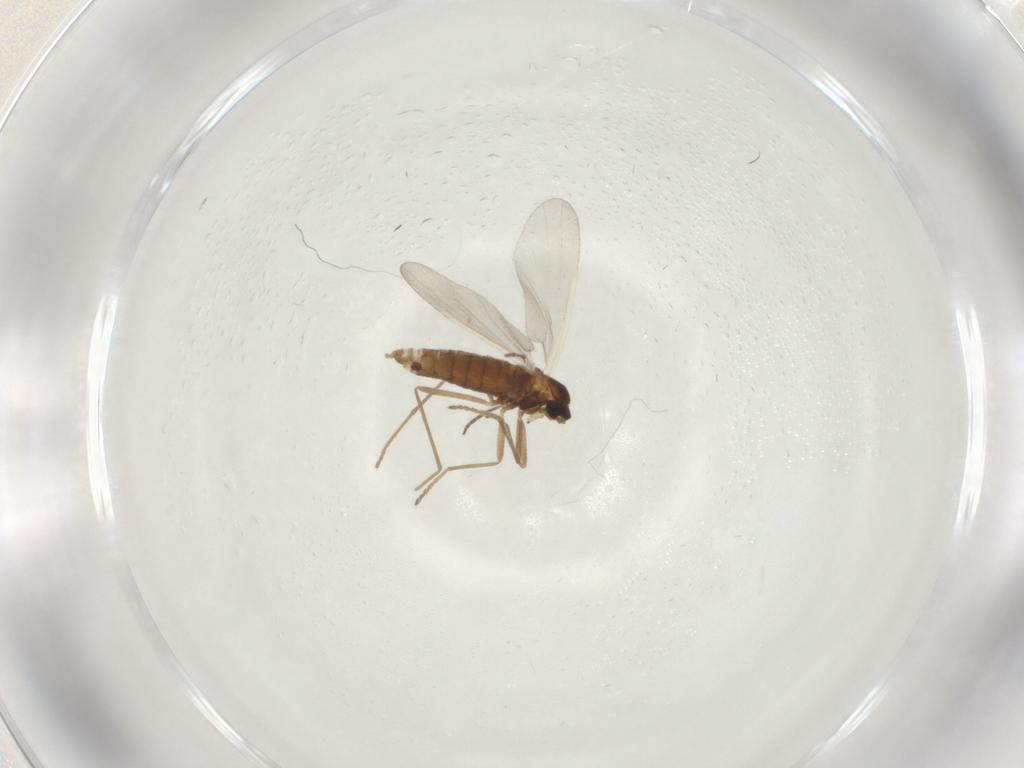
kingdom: Animalia
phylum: Arthropoda
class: Insecta
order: Diptera
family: Cecidomyiidae
